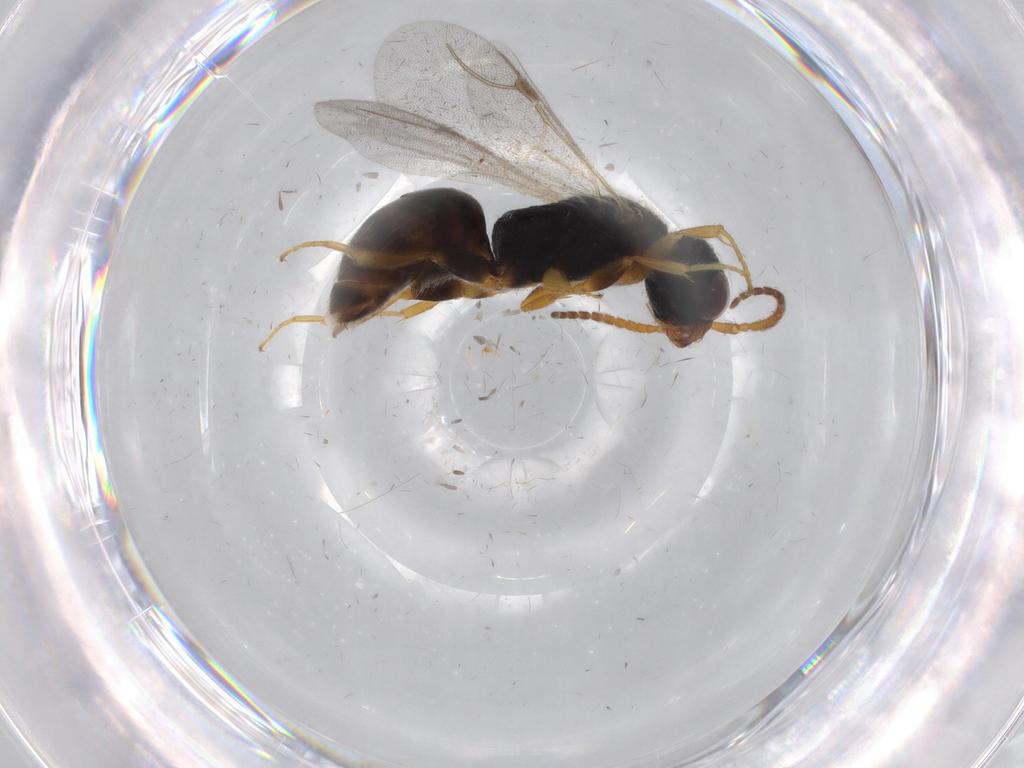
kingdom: Animalia
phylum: Arthropoda
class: Insecta
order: Hymenoptera
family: Bethylidae
